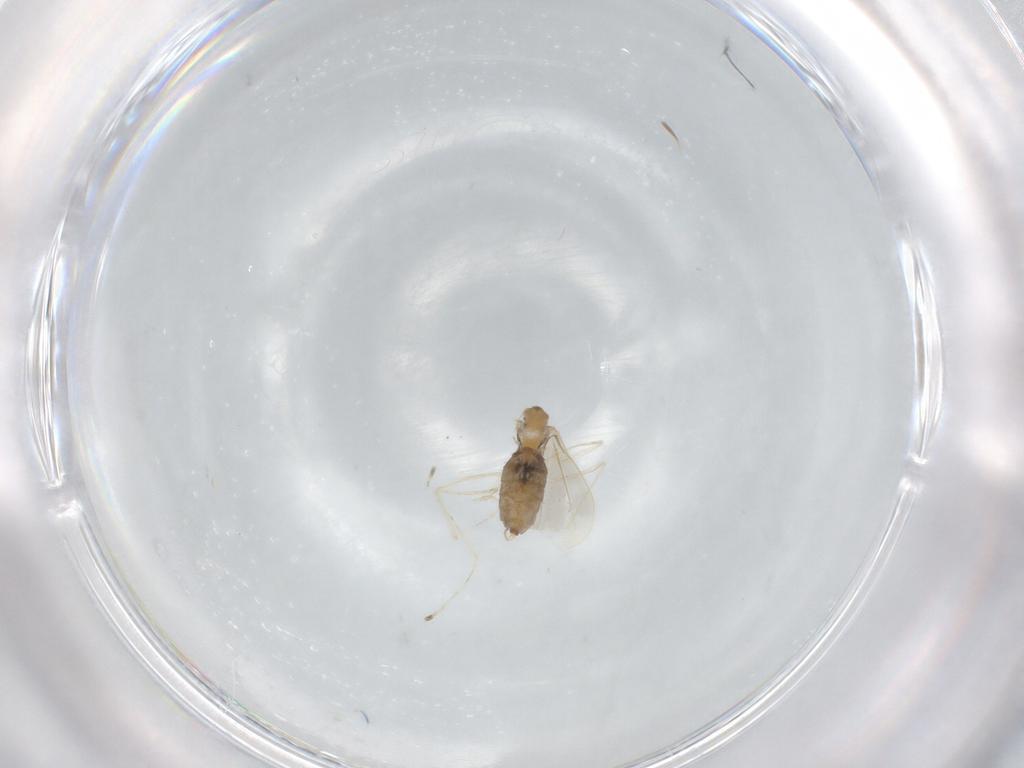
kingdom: Animalia
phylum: Arthropoda
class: Insecta
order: Diptera
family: Cecidomyiidae
